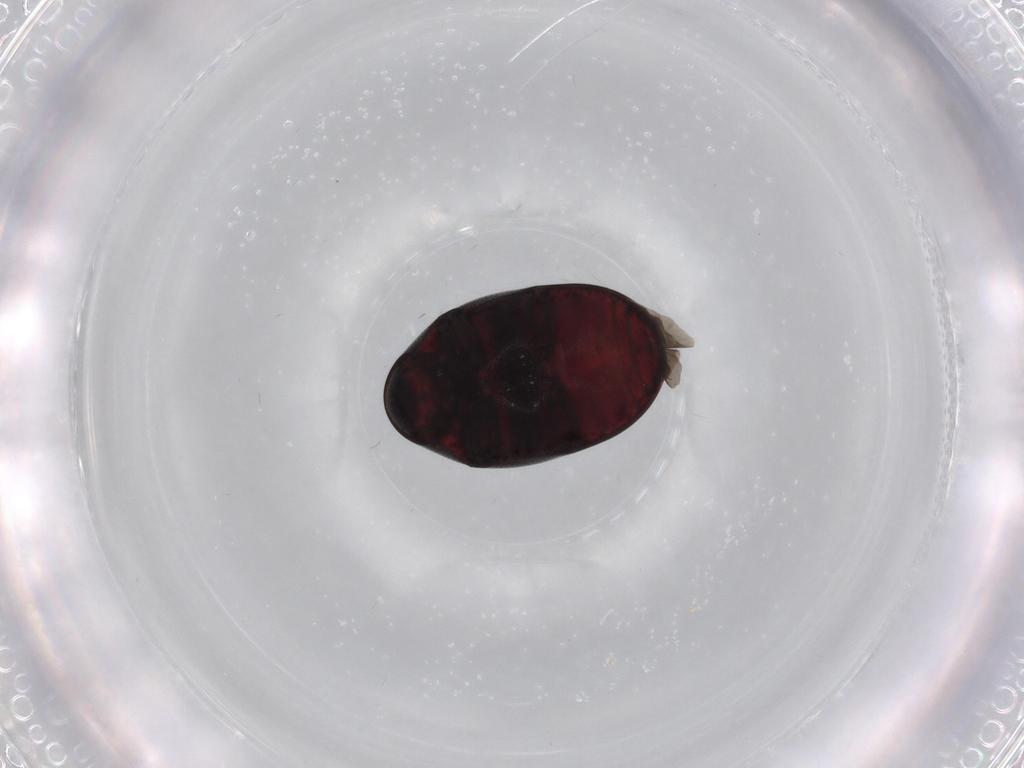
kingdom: Animalia
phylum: Arthropoda
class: Insecta
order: Coleoptera
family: Ptinidae
